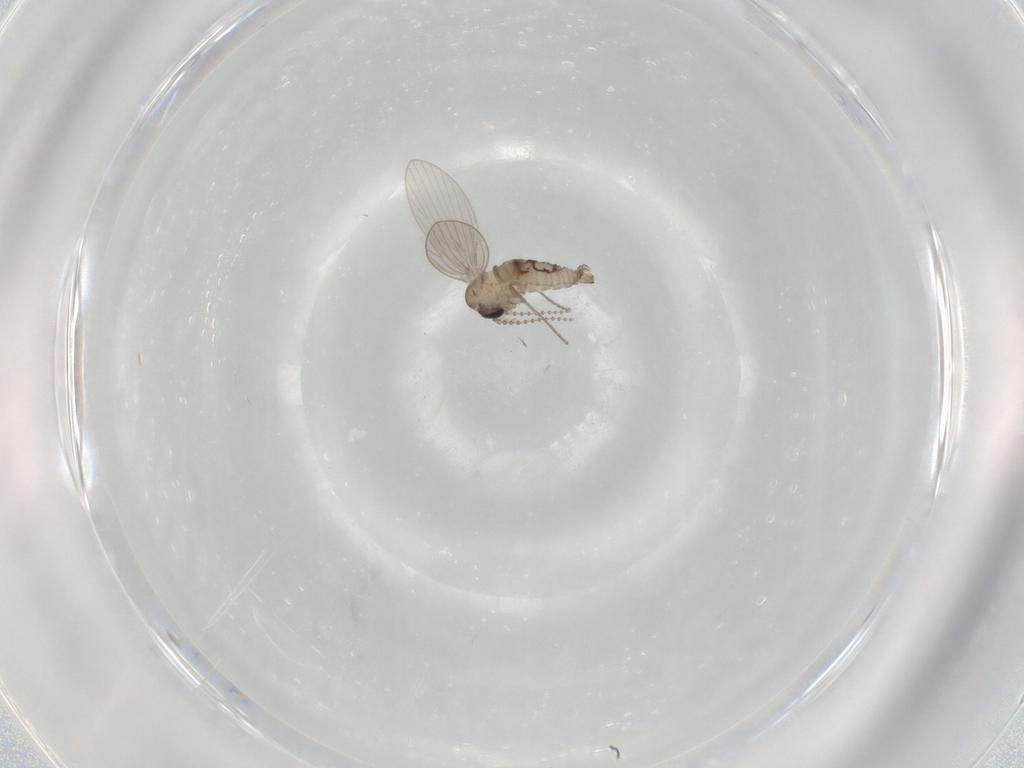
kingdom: Animalia
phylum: Arthropoda
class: Insecta
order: Diptera
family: Psychodidae
